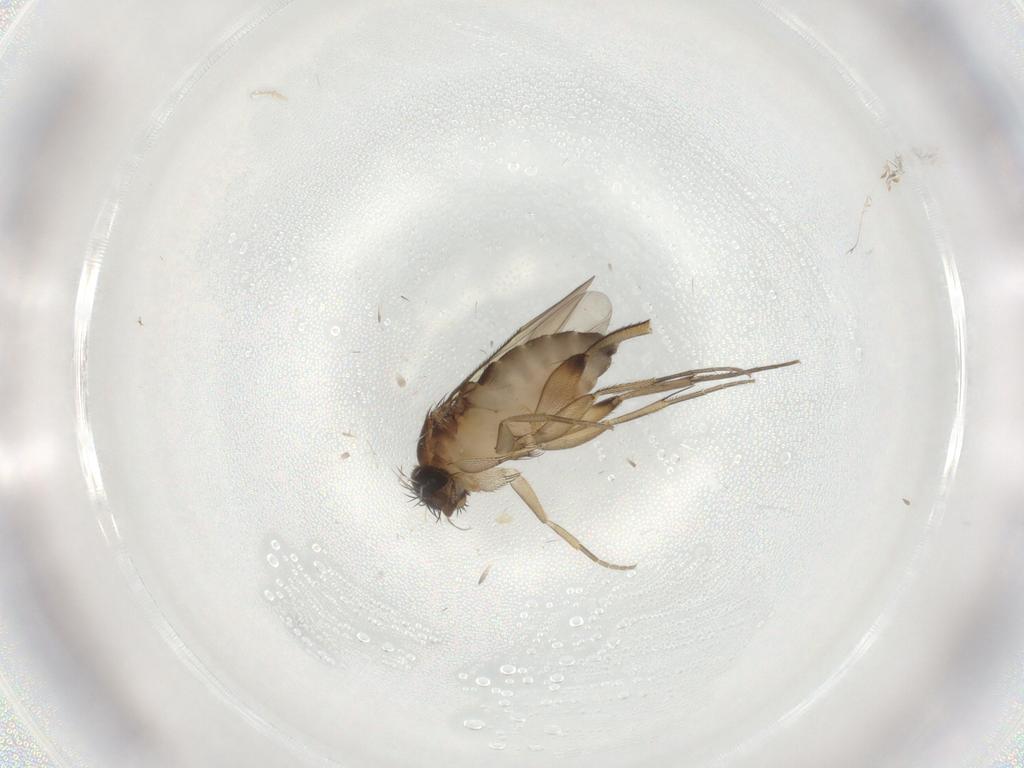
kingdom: Animalia
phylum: Arthropoda
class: Insecta
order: Diptera
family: Phoridae
